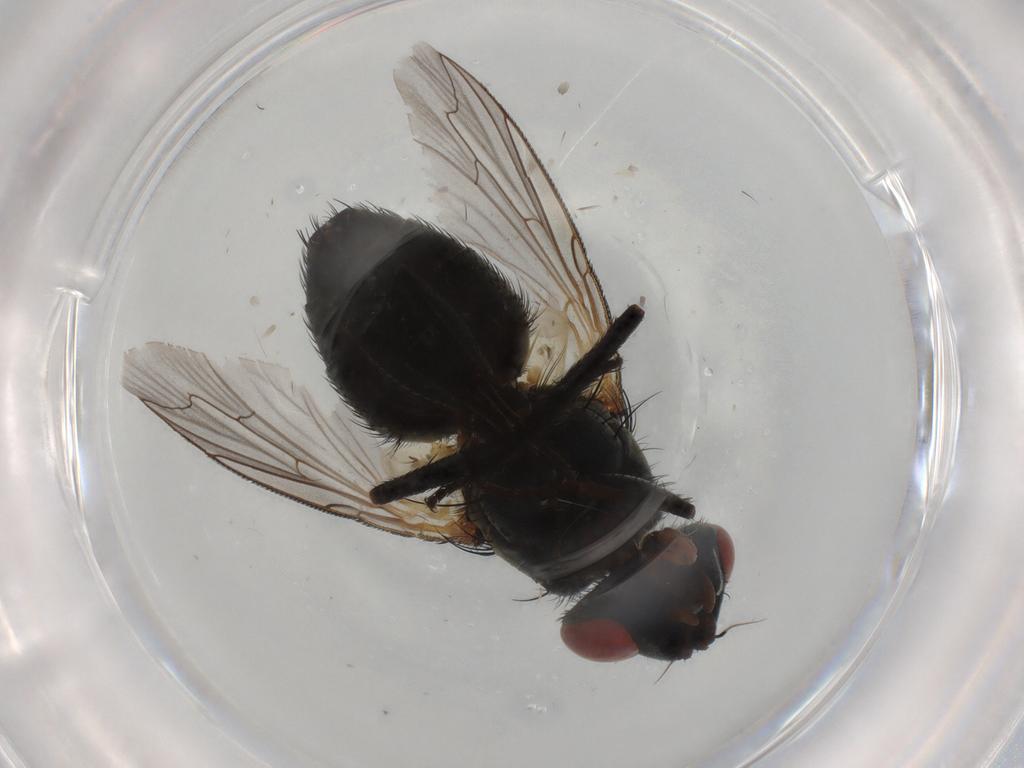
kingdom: Animalia
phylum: Arthropoda
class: Insecta
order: Diptera
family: Sarcophagidae
